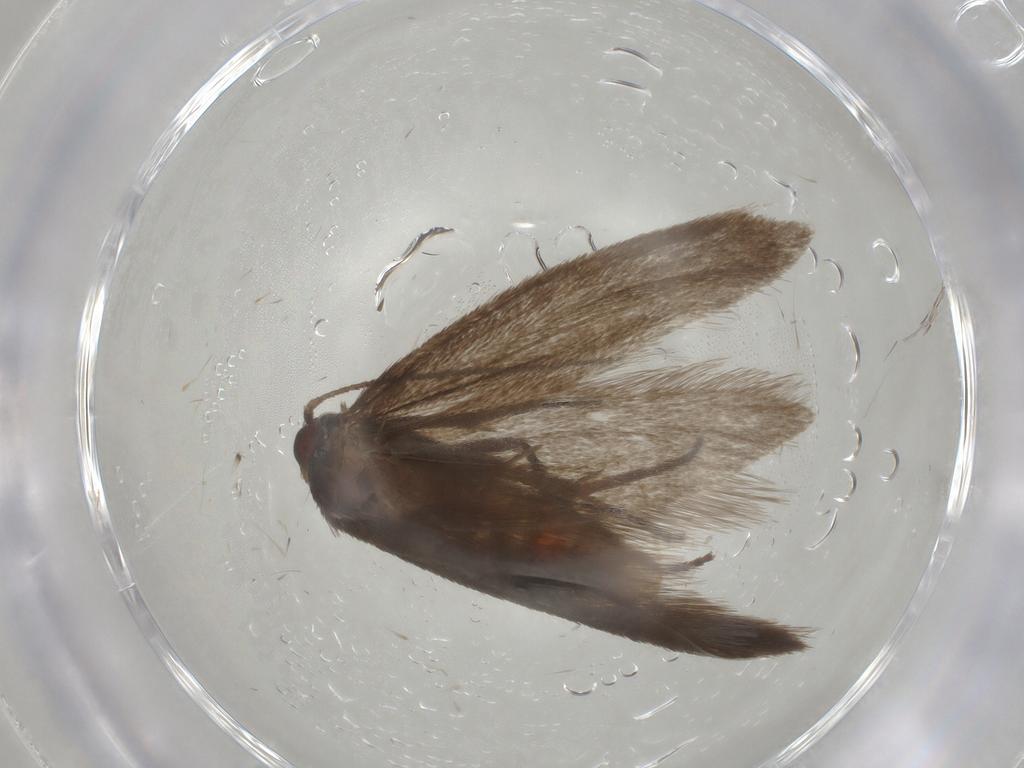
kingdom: Animalia
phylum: Arthropoda
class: Insecta
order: Lepidoptera
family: Limacodidae
